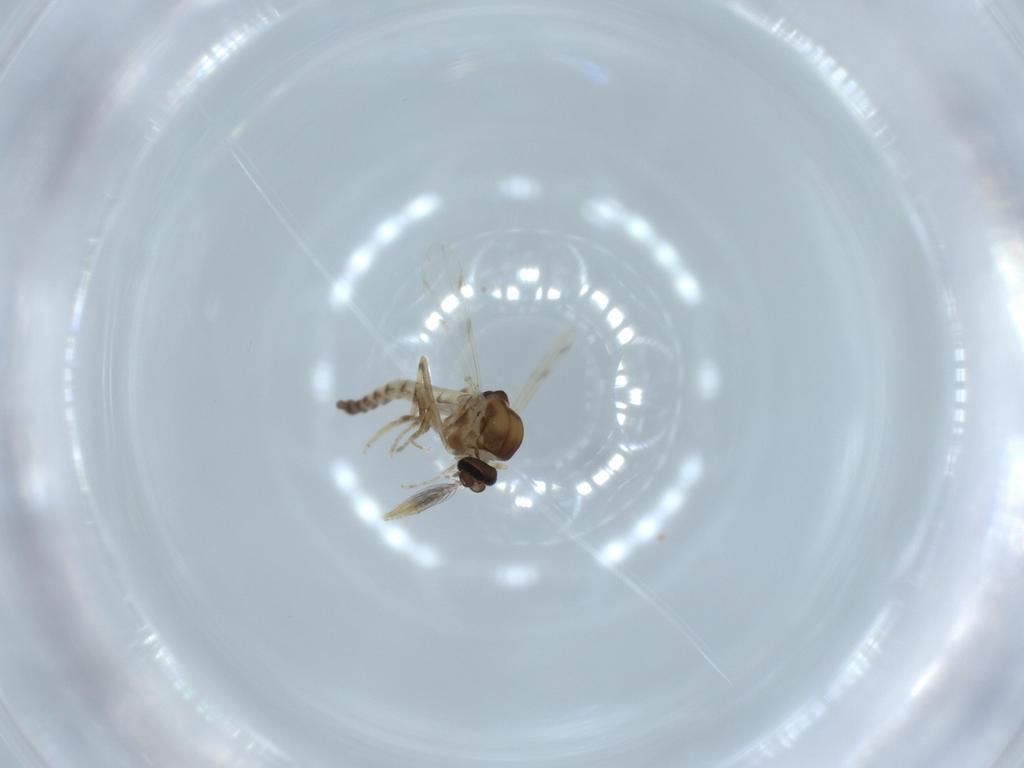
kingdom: Animalia
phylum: Arthropoda
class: Insecta
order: Diptera
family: Ceratopogonidae
